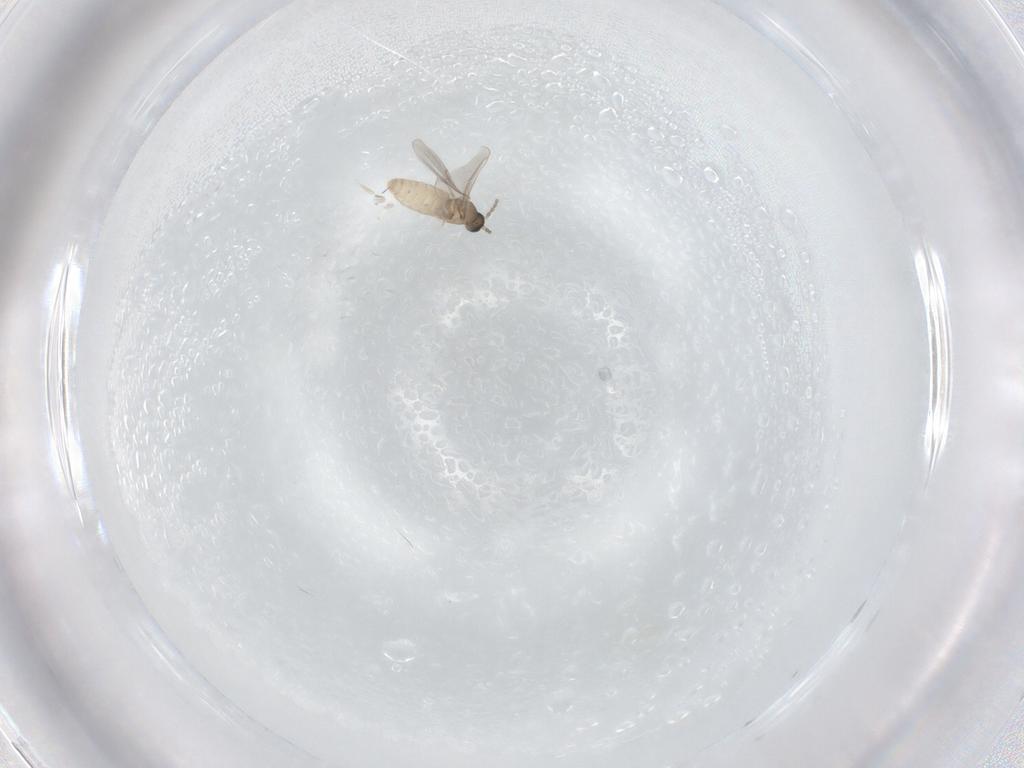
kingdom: Animalia
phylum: Arthropoda
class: Insecta
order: Diptera
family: Cecidomyiidae
